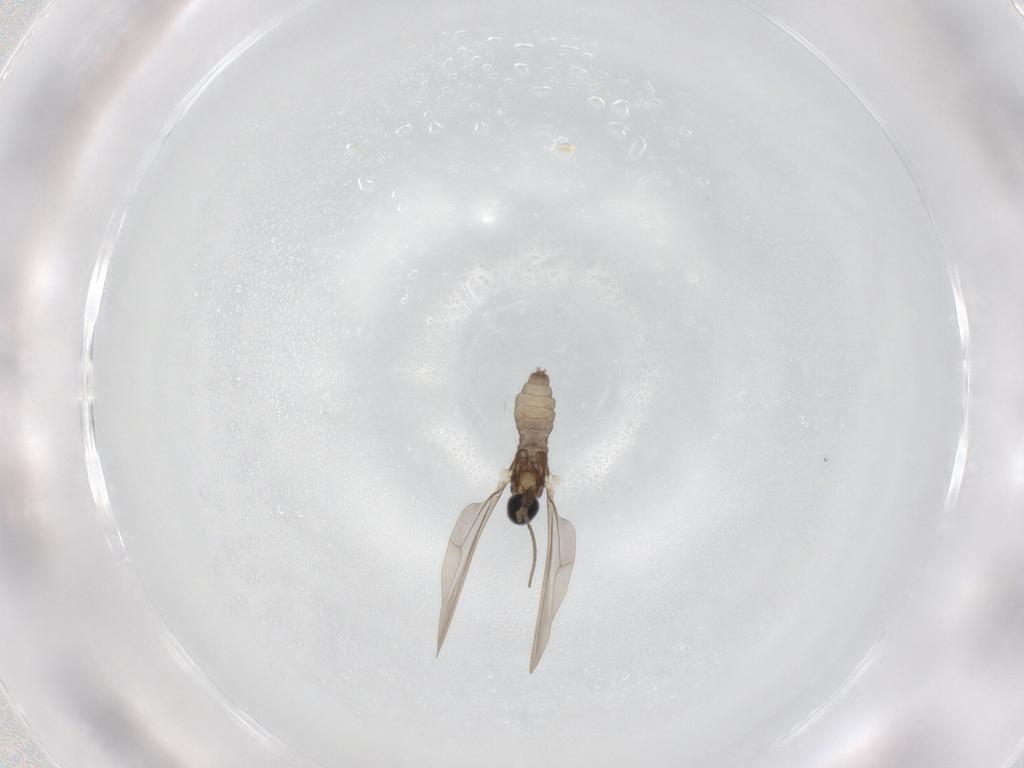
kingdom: Animalia
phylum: Arthropoda
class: Insecta
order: Diptera
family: Cecidomyiidae
